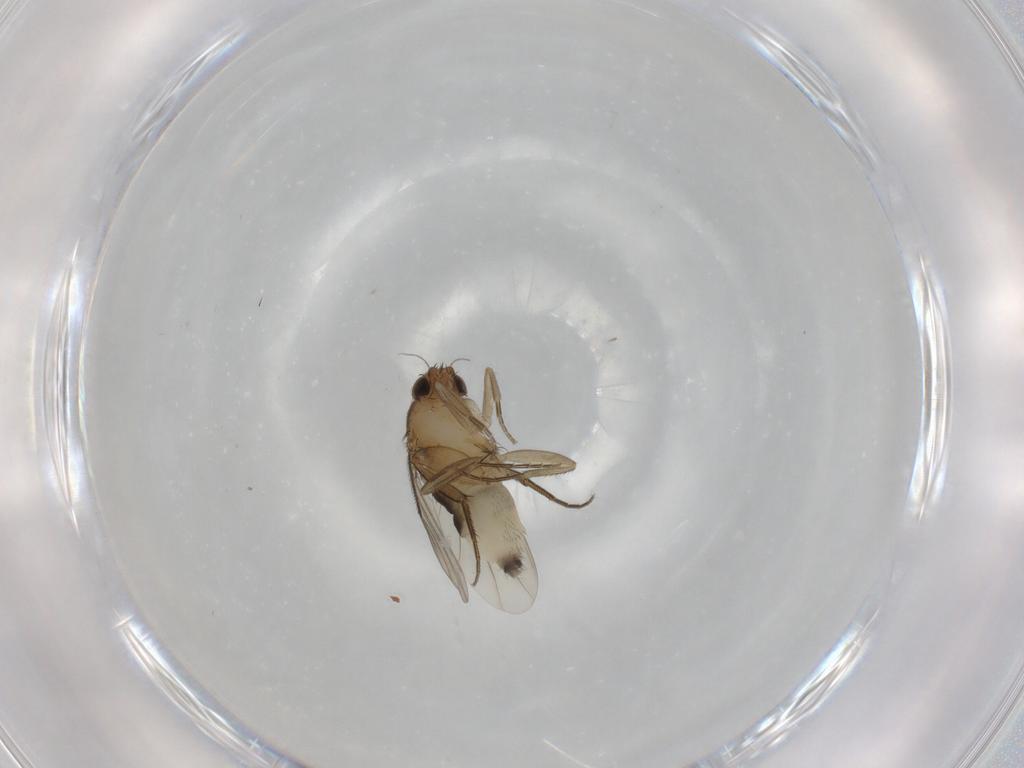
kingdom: Animalia
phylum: Arthropoda
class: Insecta
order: Diptera
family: Phoridae
